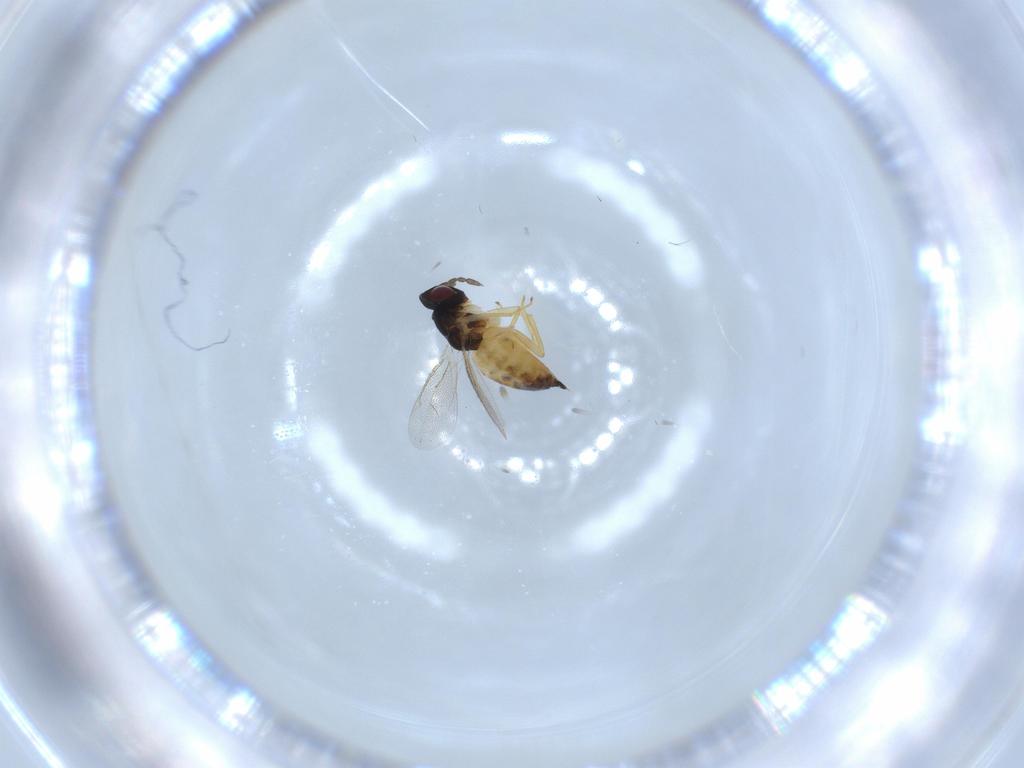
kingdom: Animalia
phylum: Arthropoda
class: Insecta
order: Hymenoptera
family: Eulophidae
